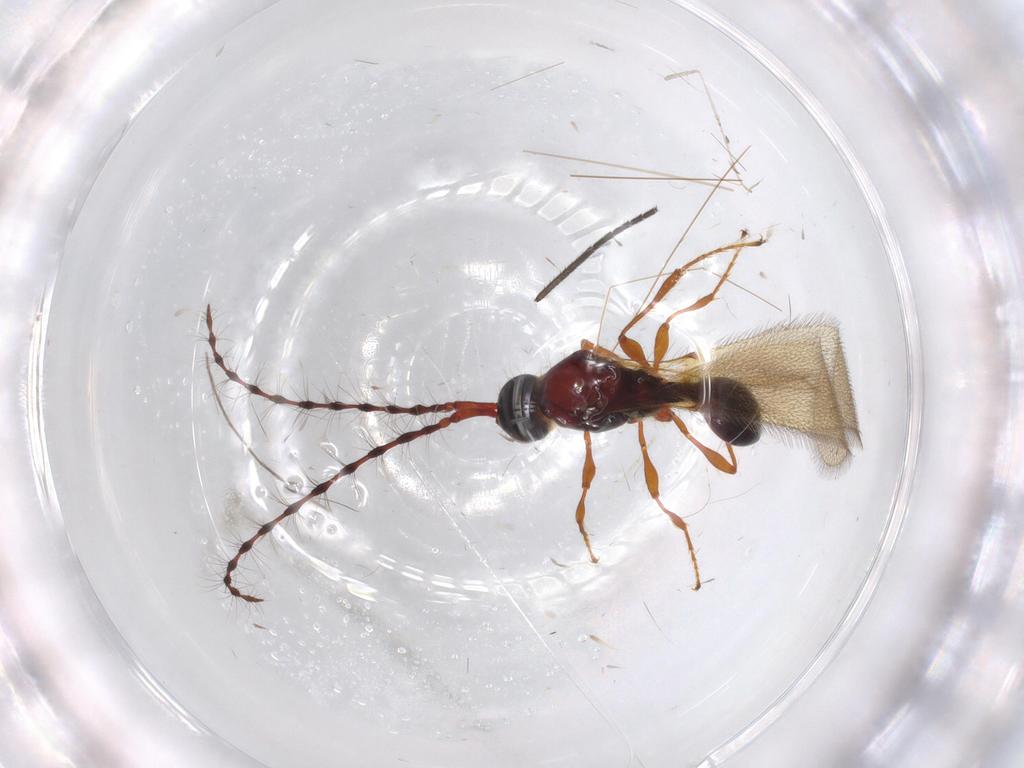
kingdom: Animalia
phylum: Arthropoda
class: Insecta
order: Hymenoptera
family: Diapriidae
